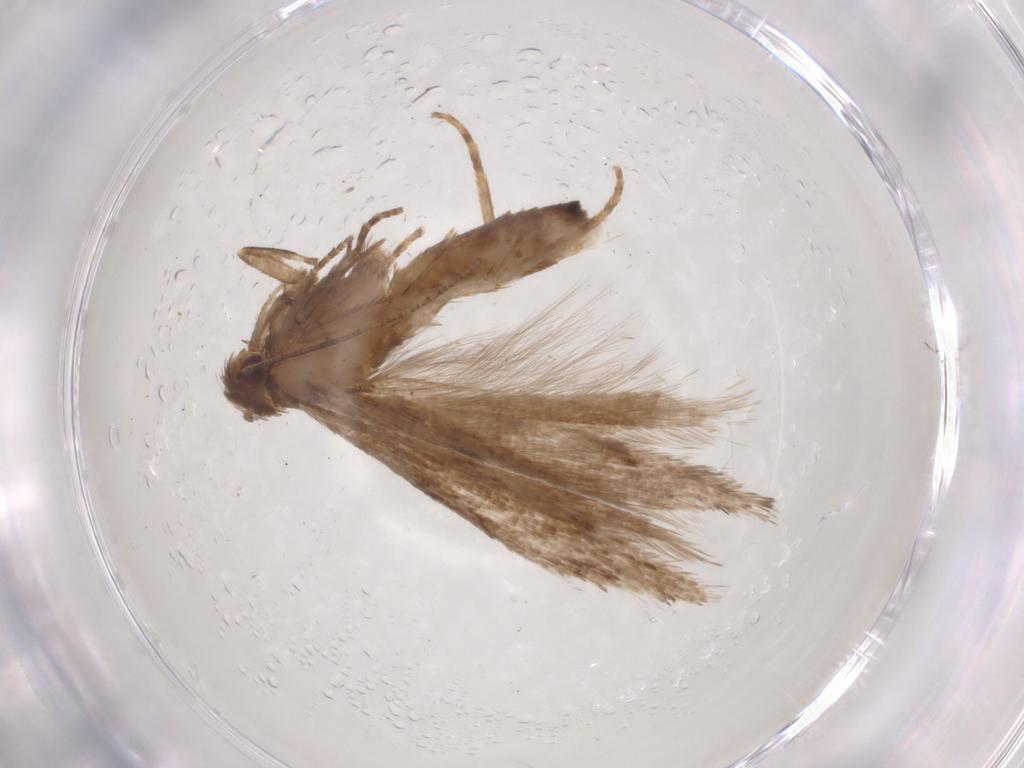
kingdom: Animalia
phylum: Arthropoda
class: Insecta
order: Lepidoptera
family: Gelechiidae
